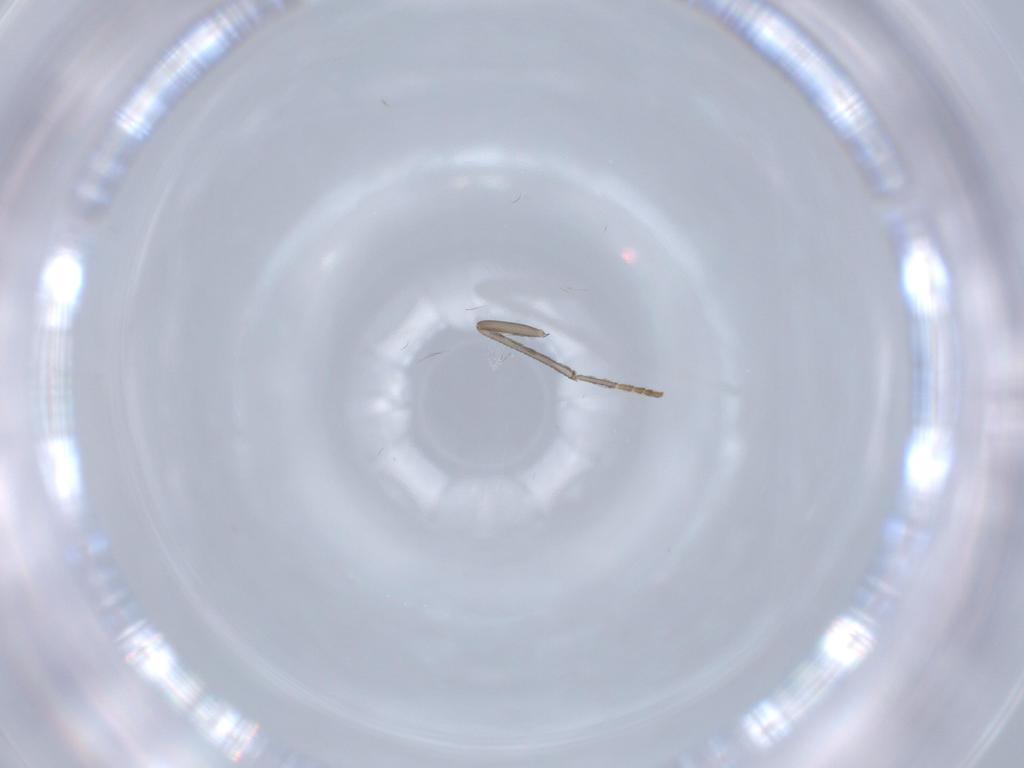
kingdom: Animalia
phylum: Arthropoda
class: Insecta
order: Diptera
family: Psychodidae
